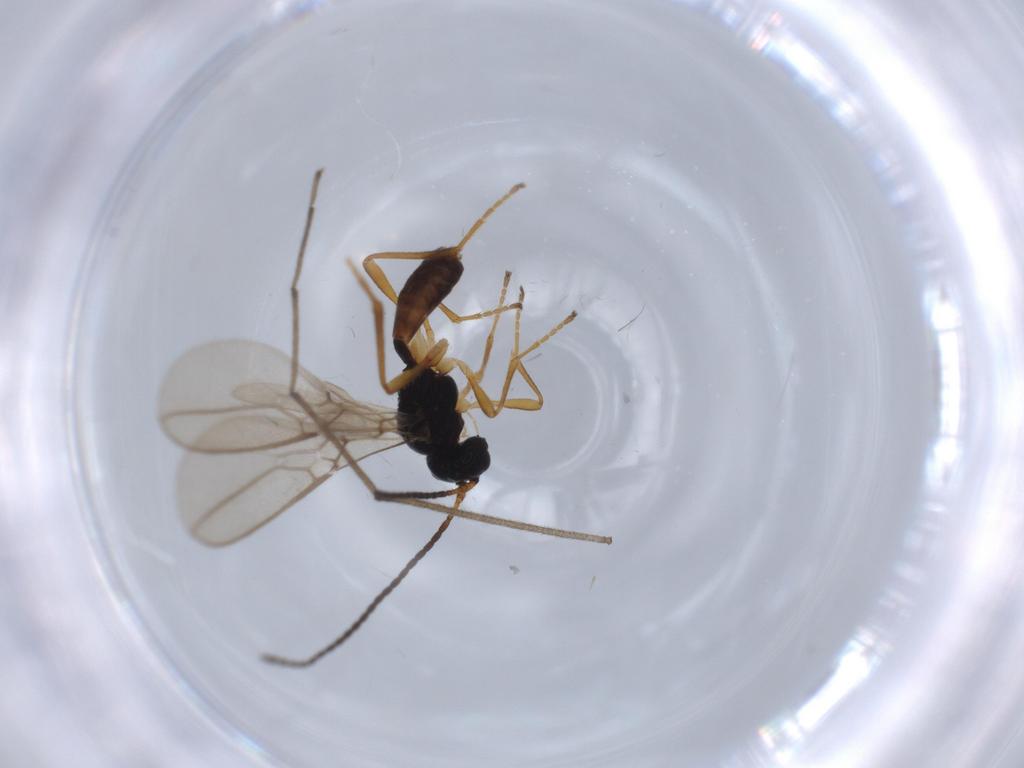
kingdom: Animalia
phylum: Arthropoda
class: Insecta
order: Hymenoptera
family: Braconidae
